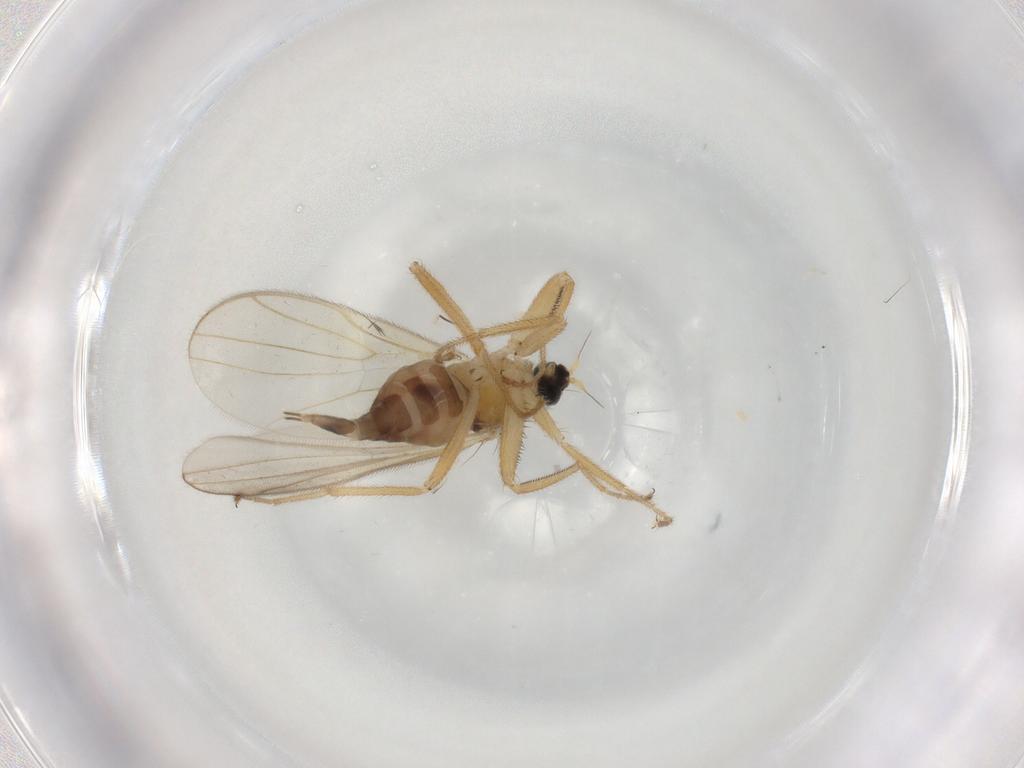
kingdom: Animalia
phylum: Arthropoda
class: Insecta
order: Diptera
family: Hybotidae
